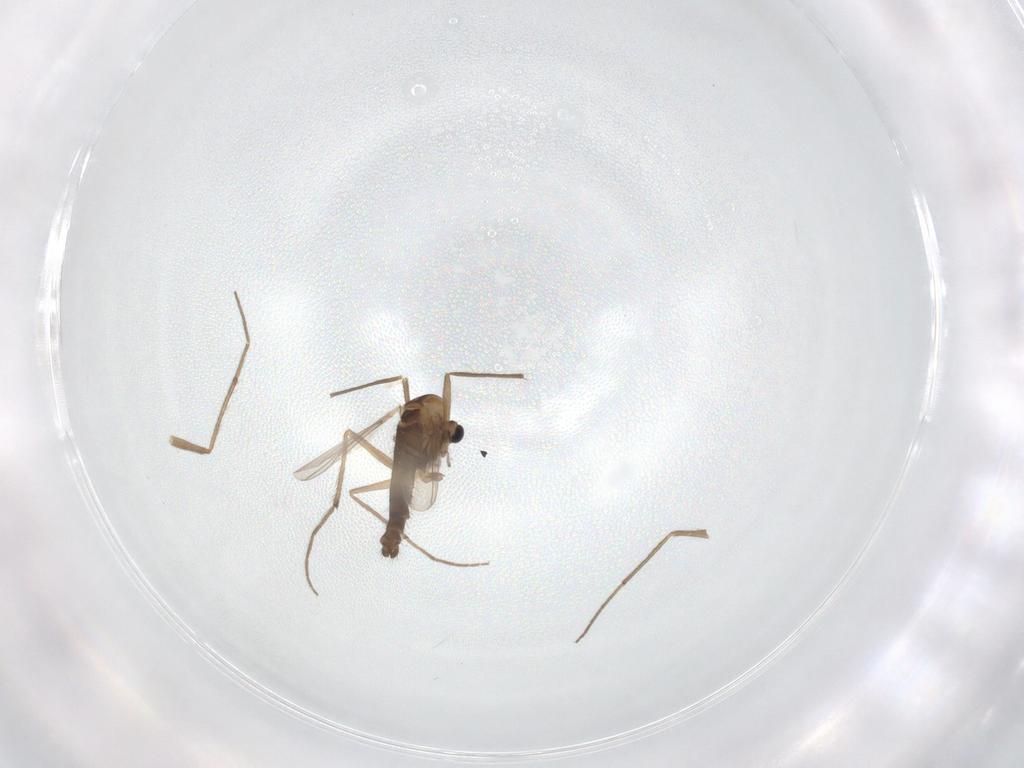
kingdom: Animalia
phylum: Arthropoda
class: Insecta
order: Diptera
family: Chironomidae
